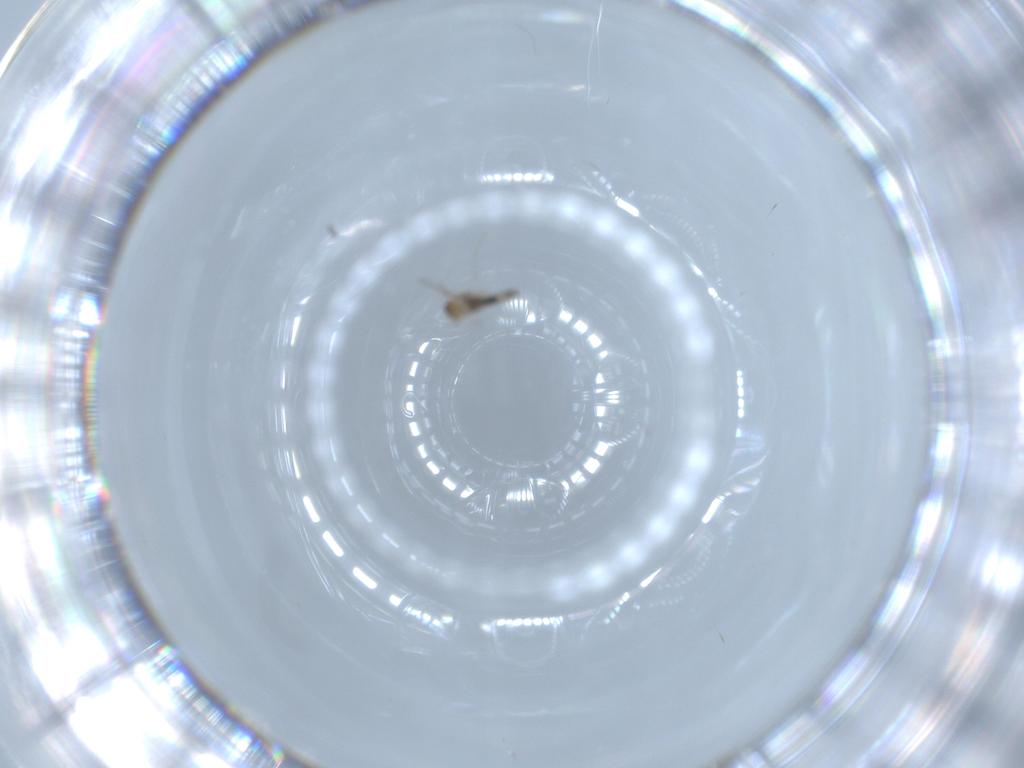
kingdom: Animalia
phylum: Arthropoda
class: Insecta
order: Diptera
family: Cecidomyiidae
